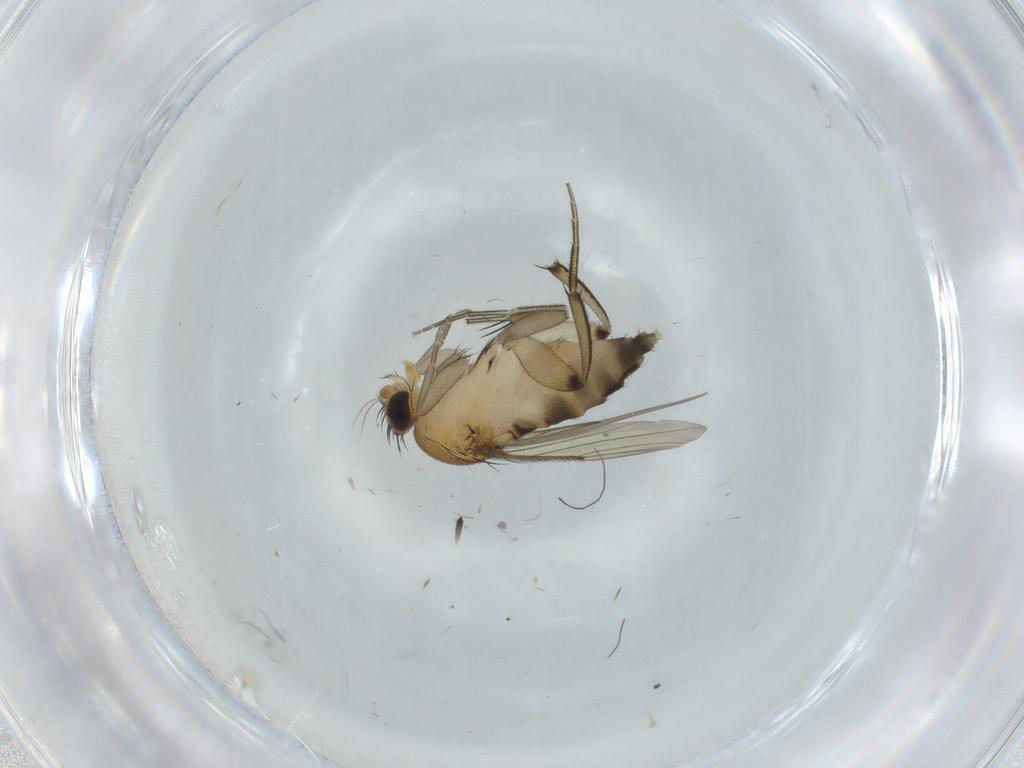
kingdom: Animalia
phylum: Arthropoda
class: Insecta
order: Diptera
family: Phoridae
